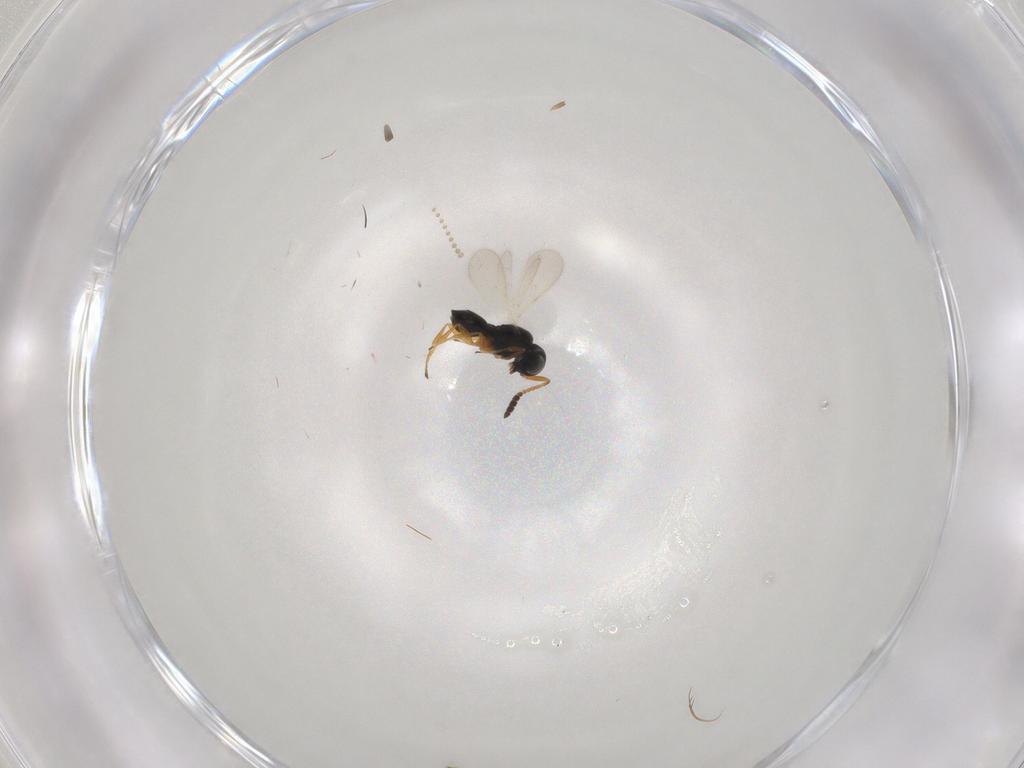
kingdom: Animalia
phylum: Arthropoda
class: Insecta
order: Hymenoptera
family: Scelionidae
